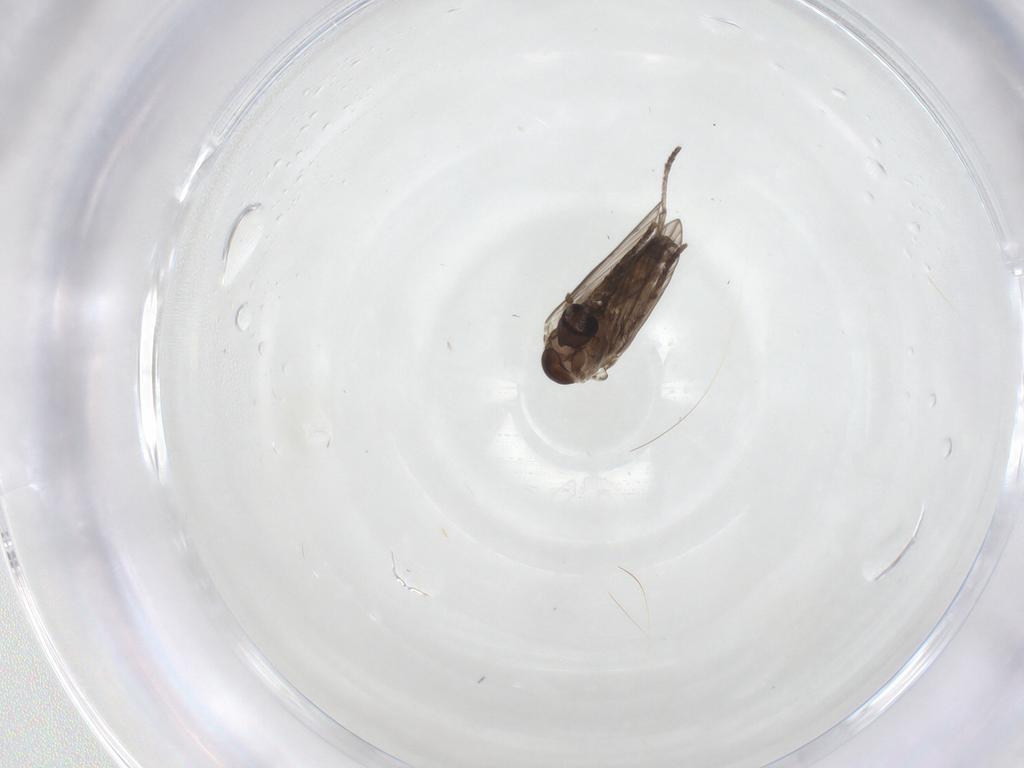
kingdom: Animalia
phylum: Arthropoda
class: Insecta
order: Diptera
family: Psychodidae
